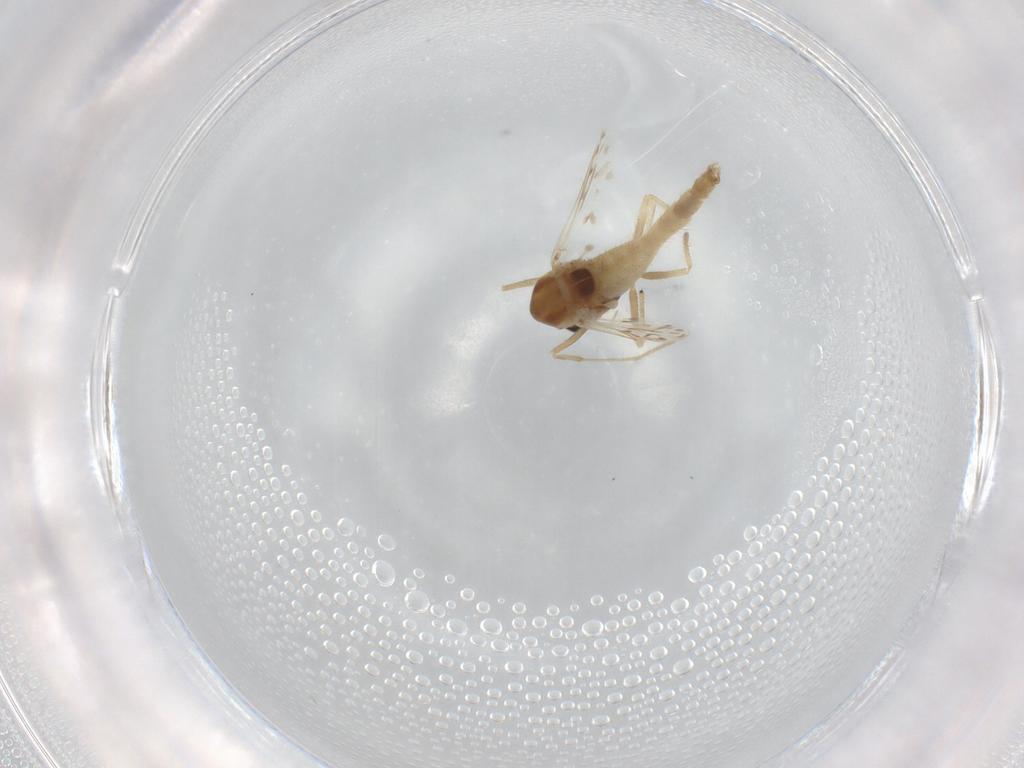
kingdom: Animalia
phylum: Arthropoda
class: Insecta
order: Diptera
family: Chironomidae
